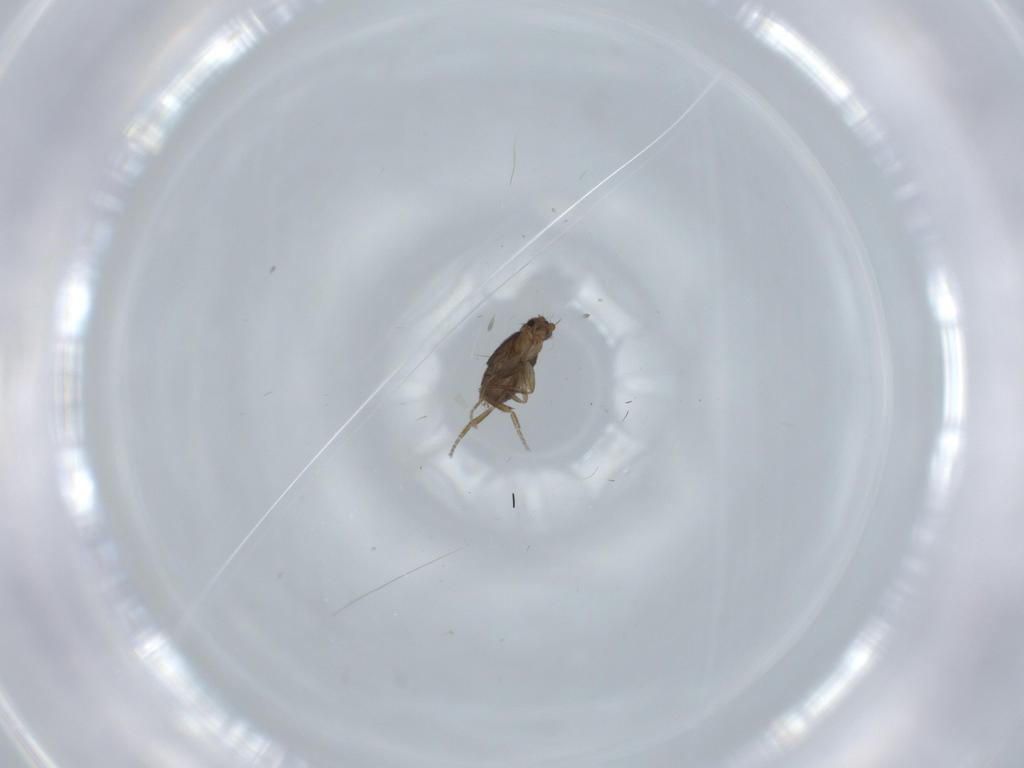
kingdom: Animalia
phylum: Arthropoda
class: Insecta
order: Diptera
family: Phoridae
